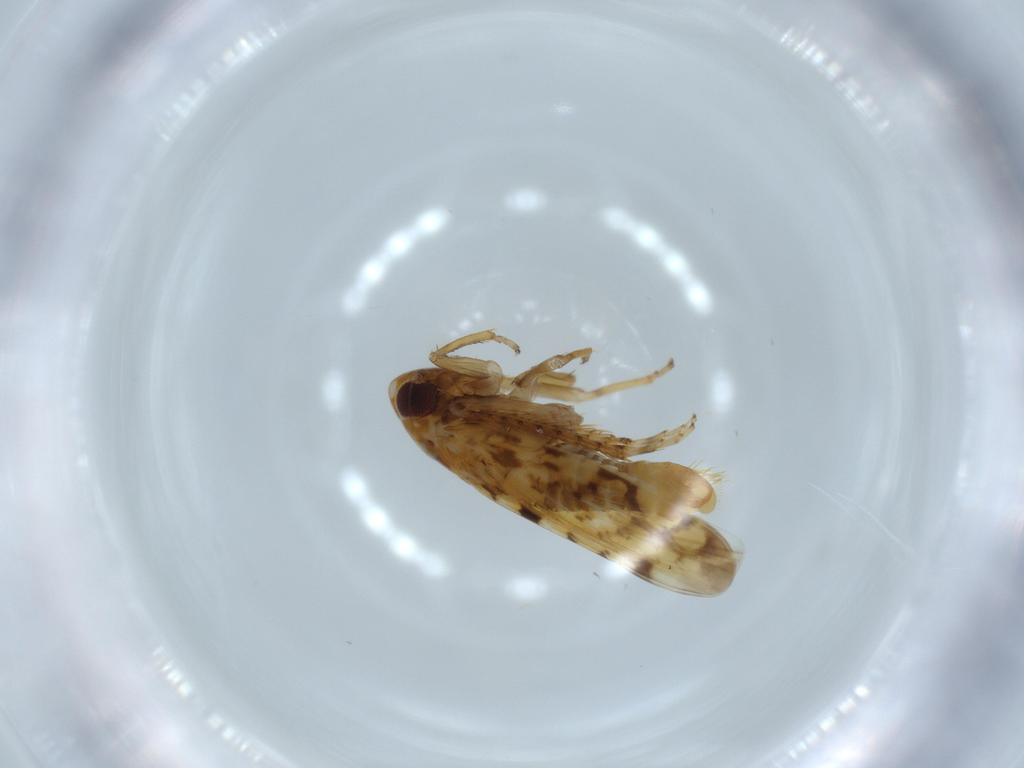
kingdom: Animalia
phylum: Arthropoda
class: Insecta
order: Hemiptera
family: Cicadellidae
